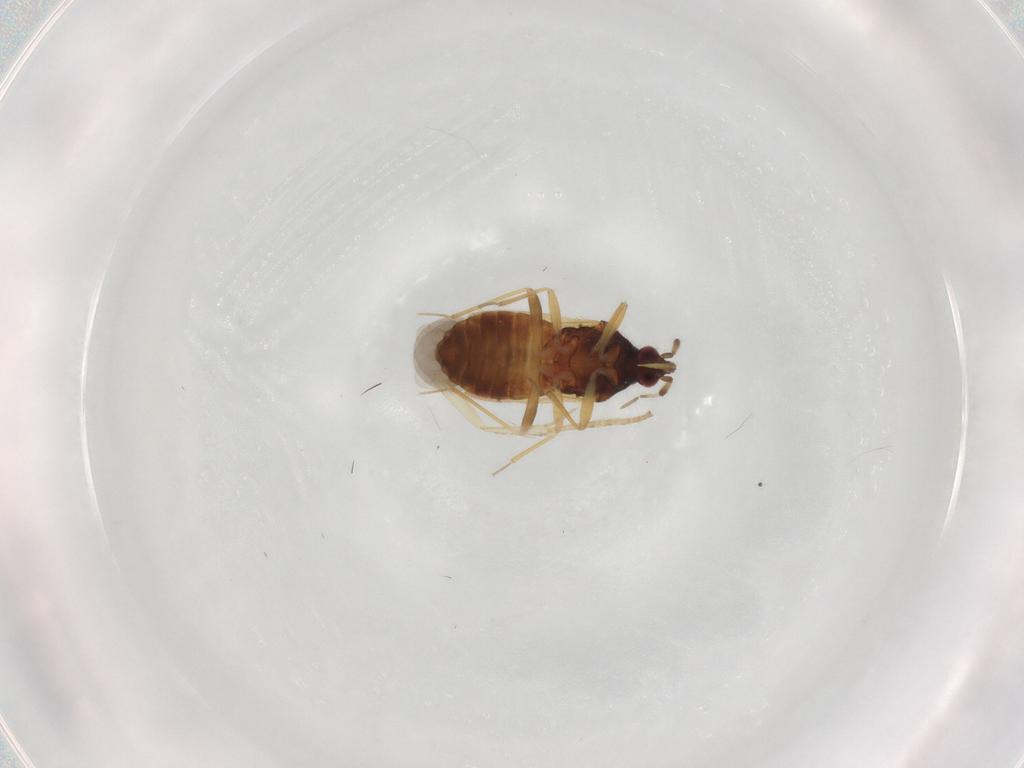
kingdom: Animalia
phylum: Arthropoda
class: Insecta
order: Hemiptera
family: Anthocoridae
